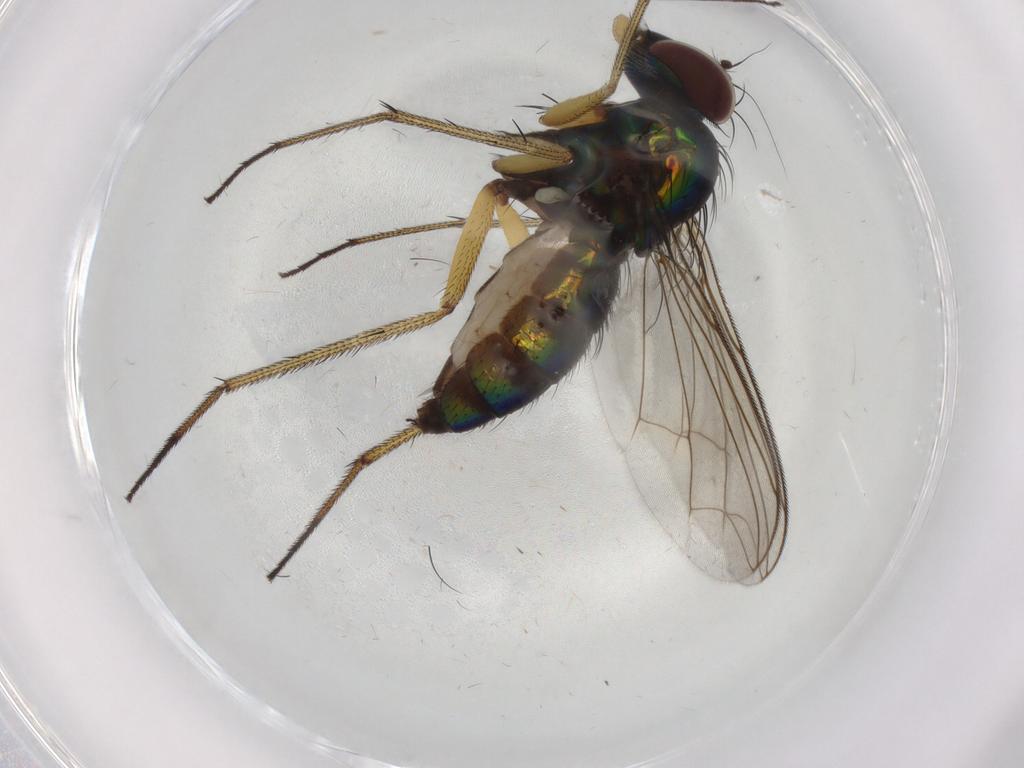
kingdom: Animalia
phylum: Arthropoda
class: Insecta
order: Diptera
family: Dolichopodidae
